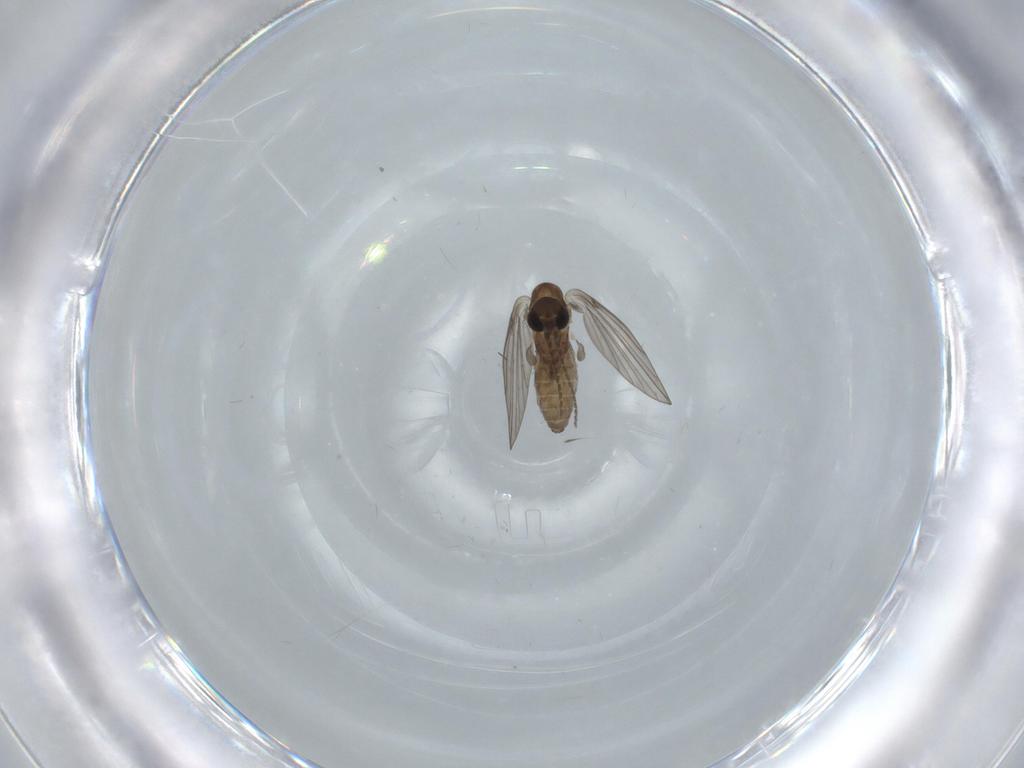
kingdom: Animalia
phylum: Arthropoda
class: Insecta
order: Diptera
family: Psychodidae
